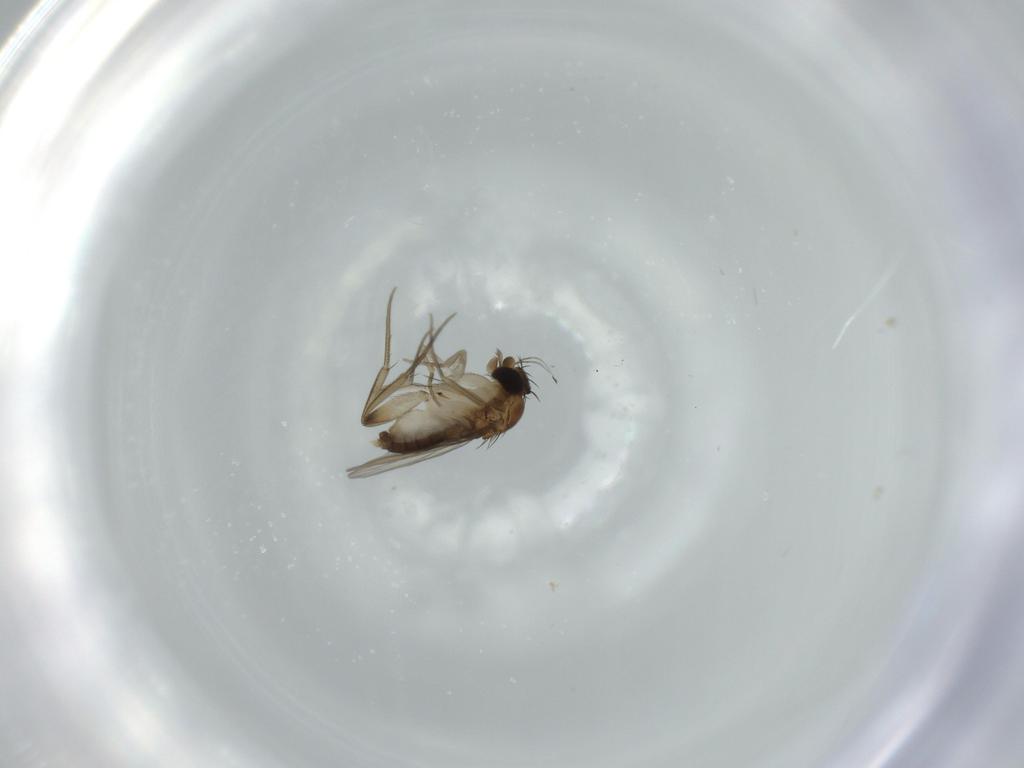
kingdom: Animalia
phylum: Arthropoda
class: Insecta
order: Diptera
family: Phoridae
